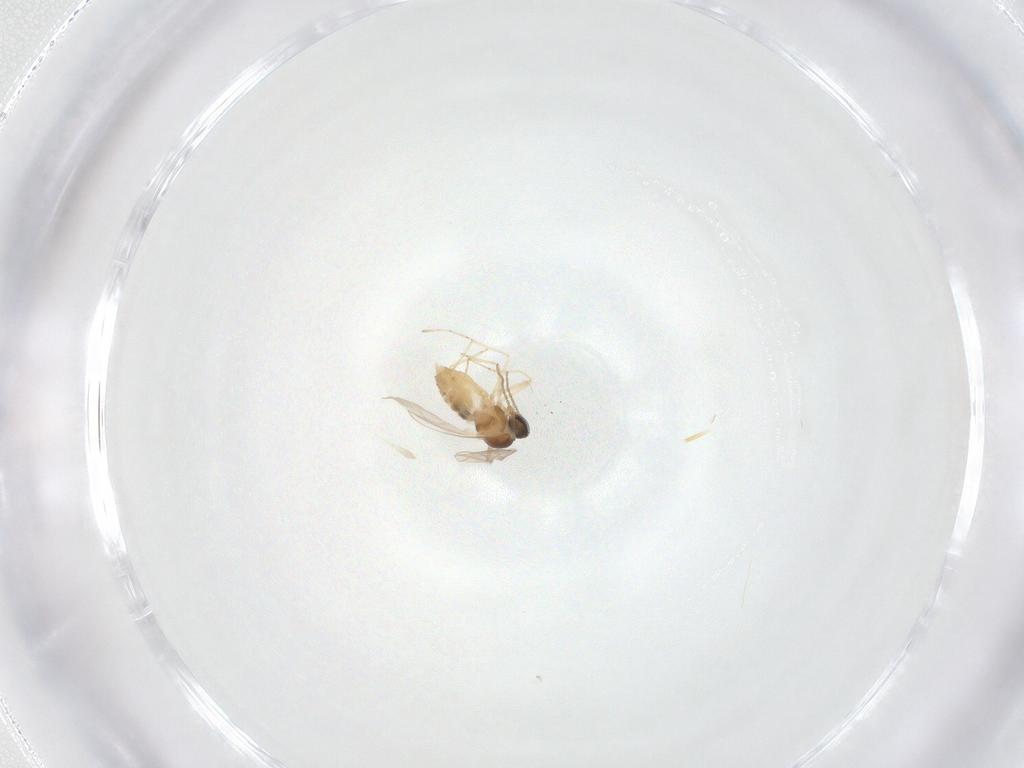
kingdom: Animalia
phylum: Arthropoda
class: Insecta
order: Diptera
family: Cecidomyiidae
